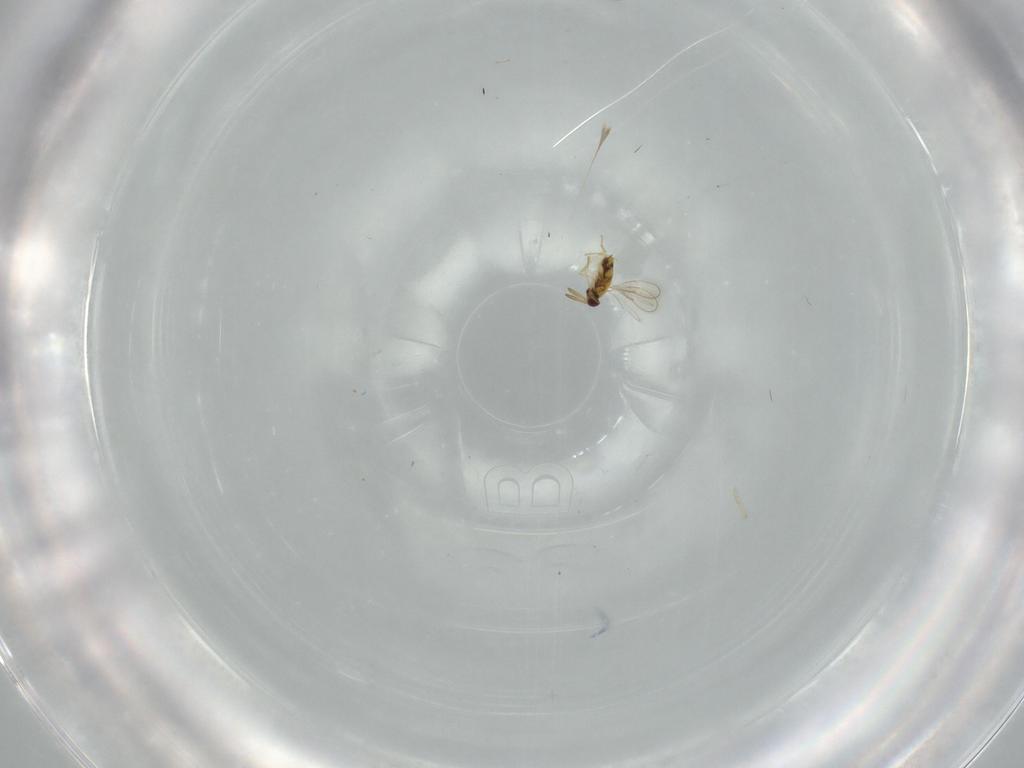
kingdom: Animalia
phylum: Arthropoda
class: Insecta
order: Hymenoptera
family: Aphelinidae
